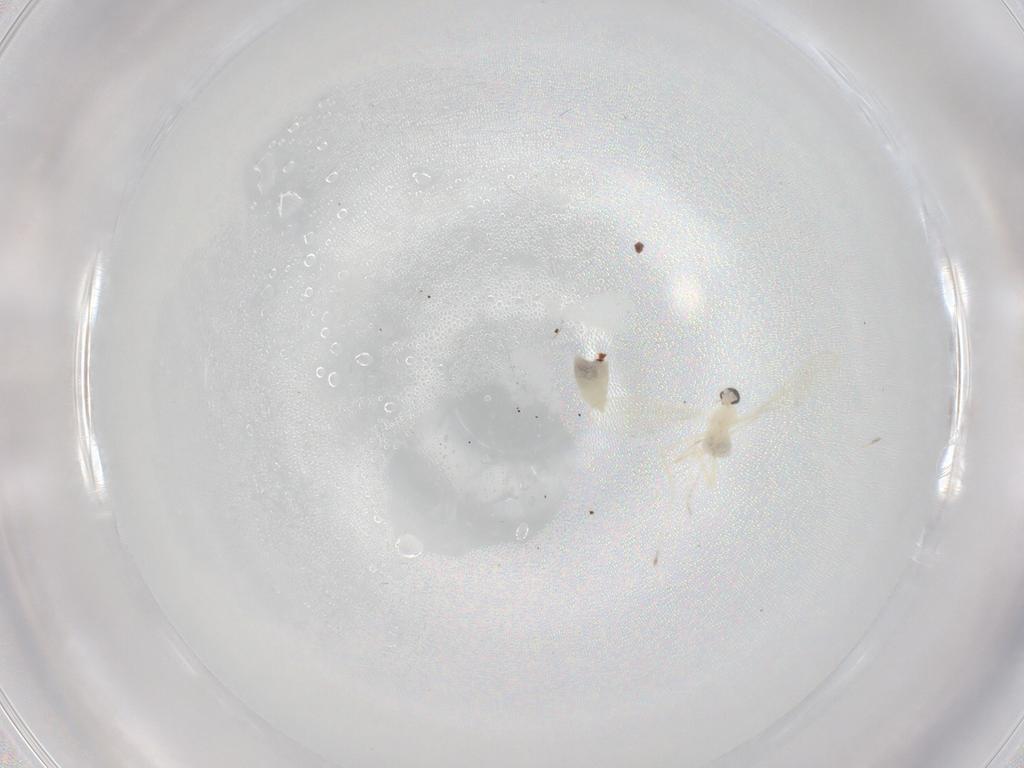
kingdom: Animalia
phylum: Arthropoda
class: Insecta
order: Diptera
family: Cecidomyiidae
